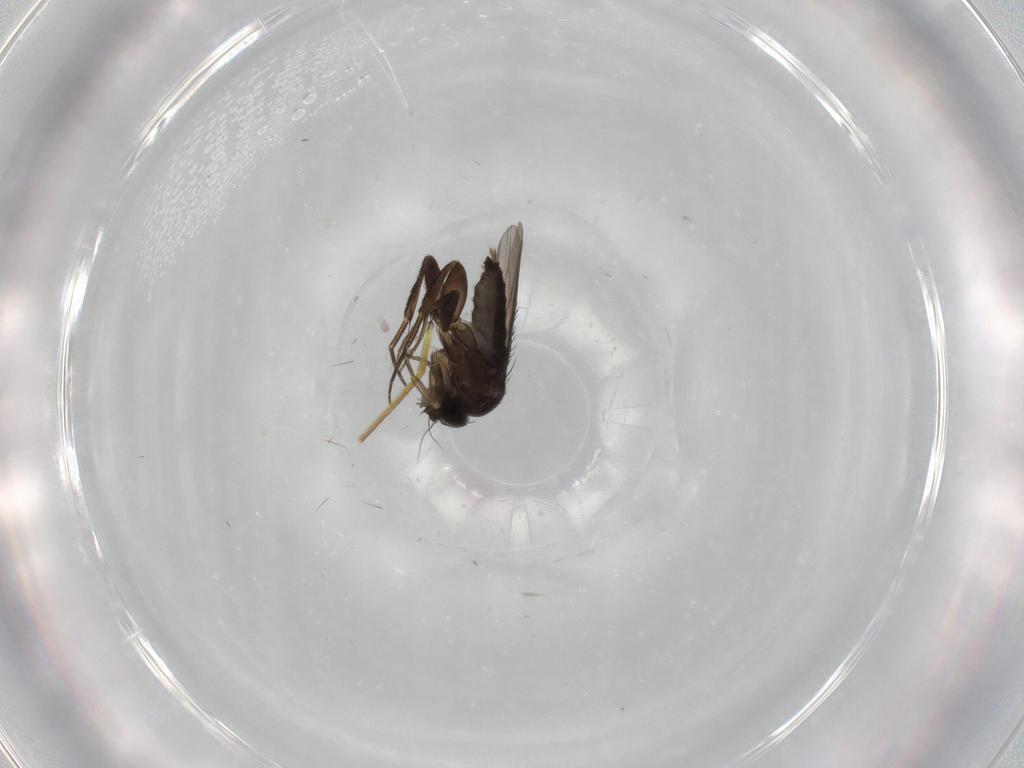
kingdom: Animalia
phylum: Arthropoda
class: Insecta
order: Diptera
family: Phoridae
